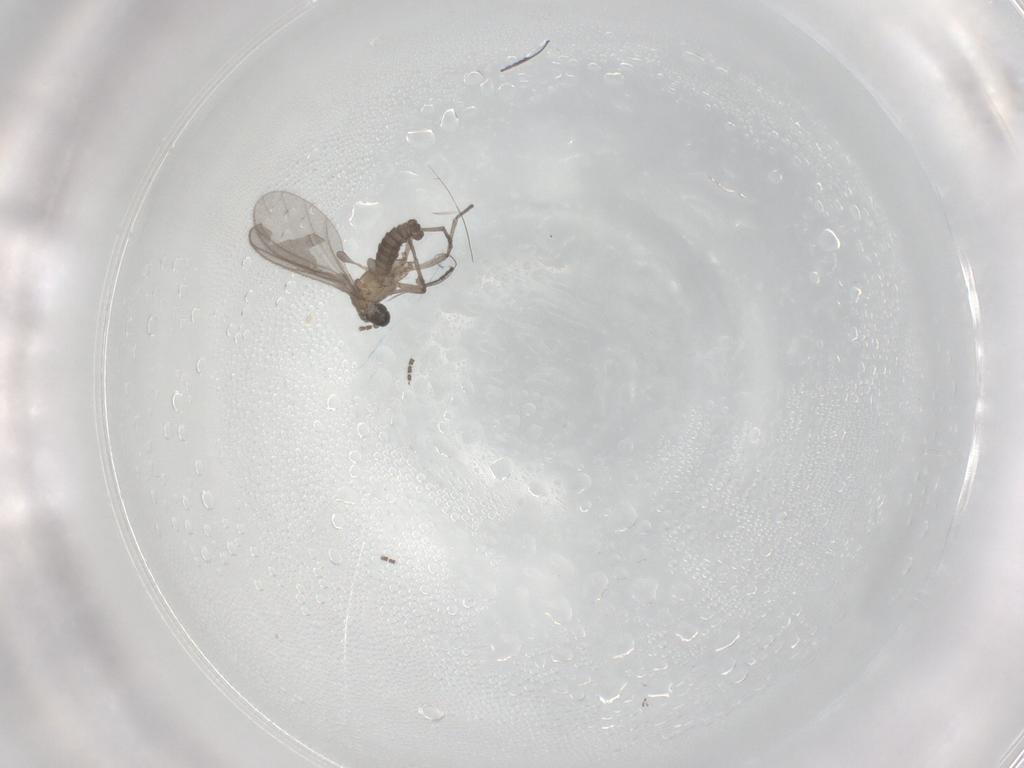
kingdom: Animalia
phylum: Arthropoda
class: Insecta
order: Diptera
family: Sciaridae
